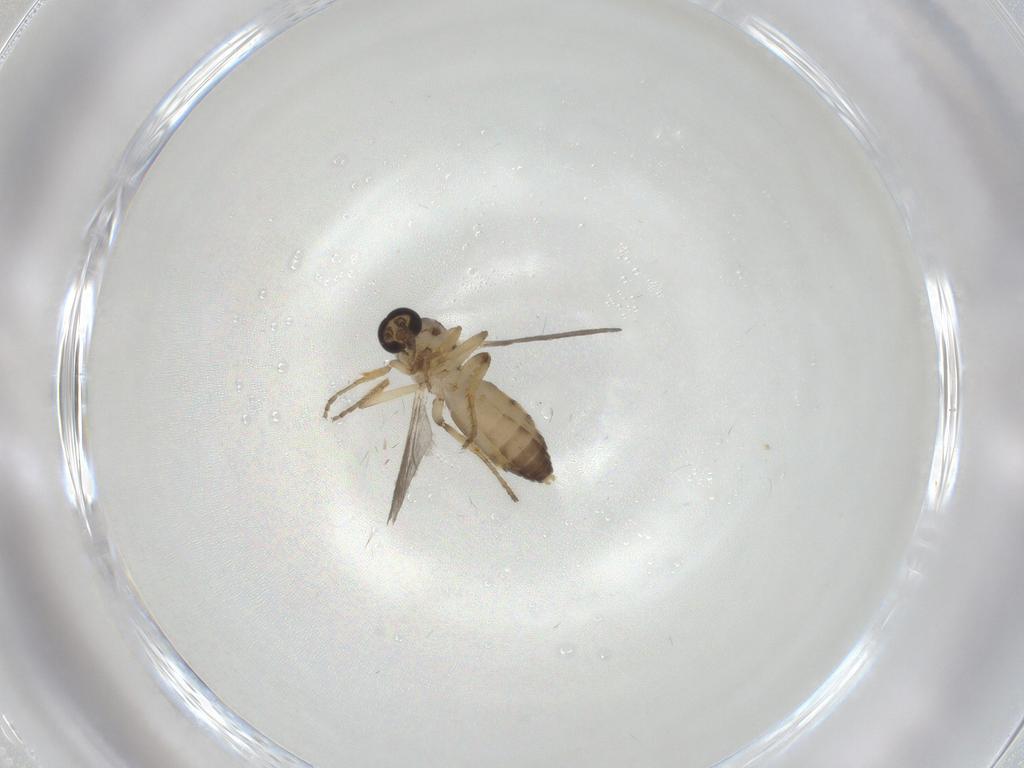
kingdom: Animalia
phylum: Arthropoda
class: Insecta
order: Diptera
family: Ceratopogonidae
